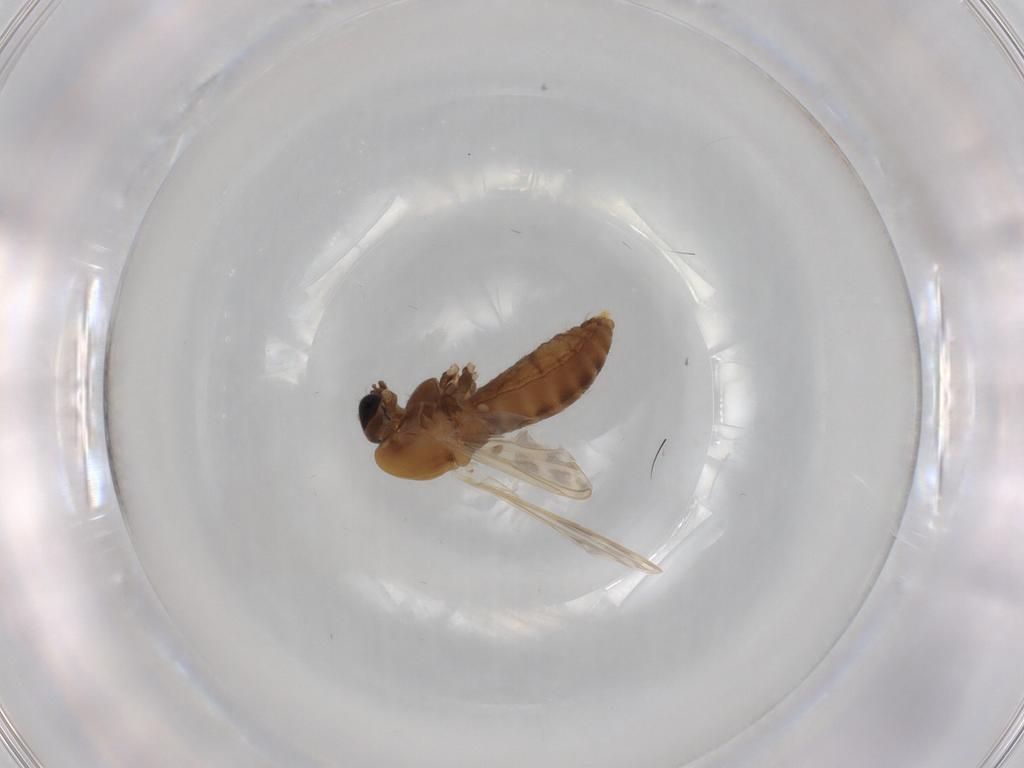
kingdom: Animalia
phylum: Arthropoda
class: Insecta
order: Diptera
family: Chironomidae
